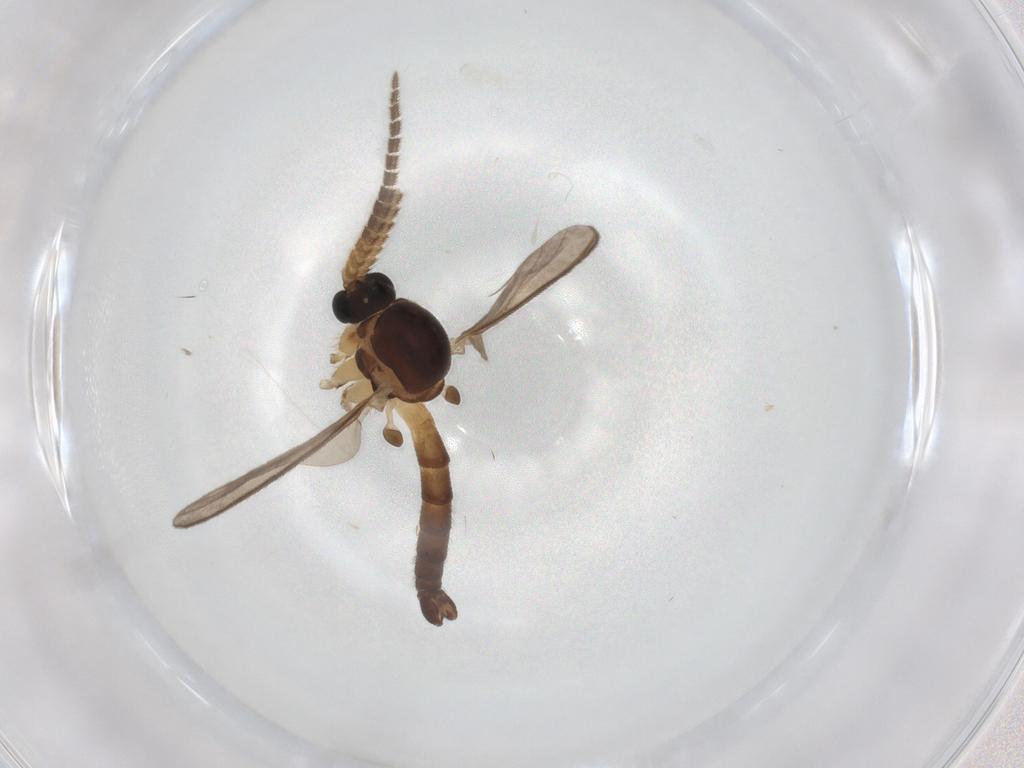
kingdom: Animalia
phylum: Arthropoda
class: Insecta
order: Diptera
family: Mycetophilidae
